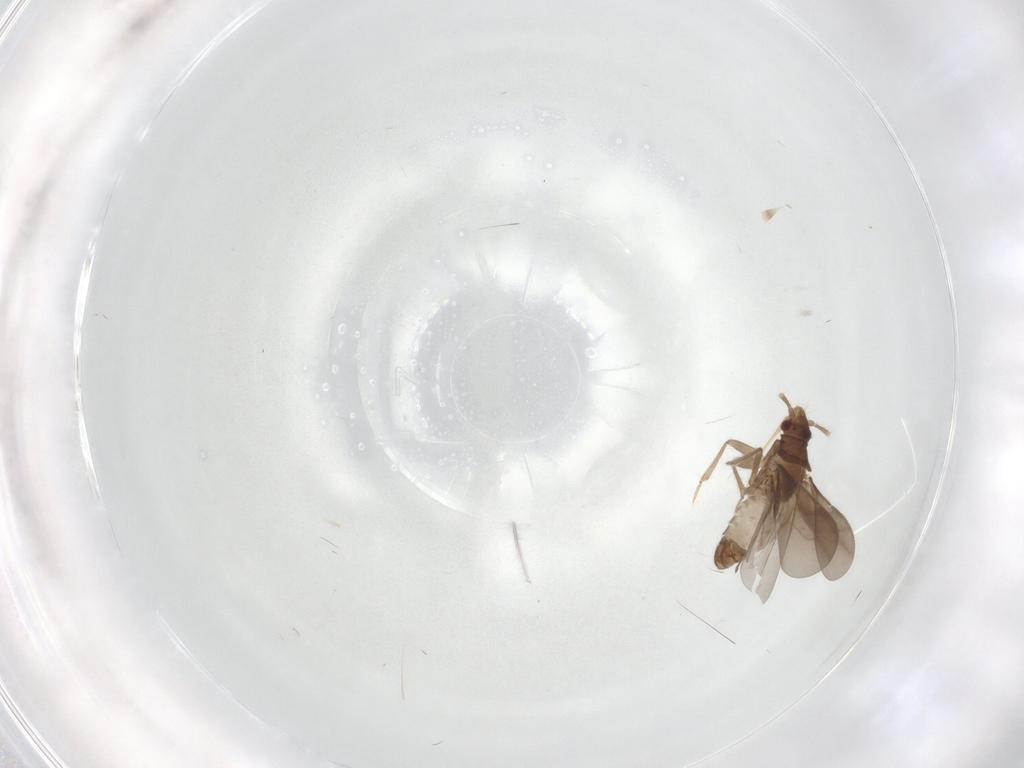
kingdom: Animalia
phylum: Arthropoda
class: Insecta
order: Hemiptera
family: Ceratocombidae
